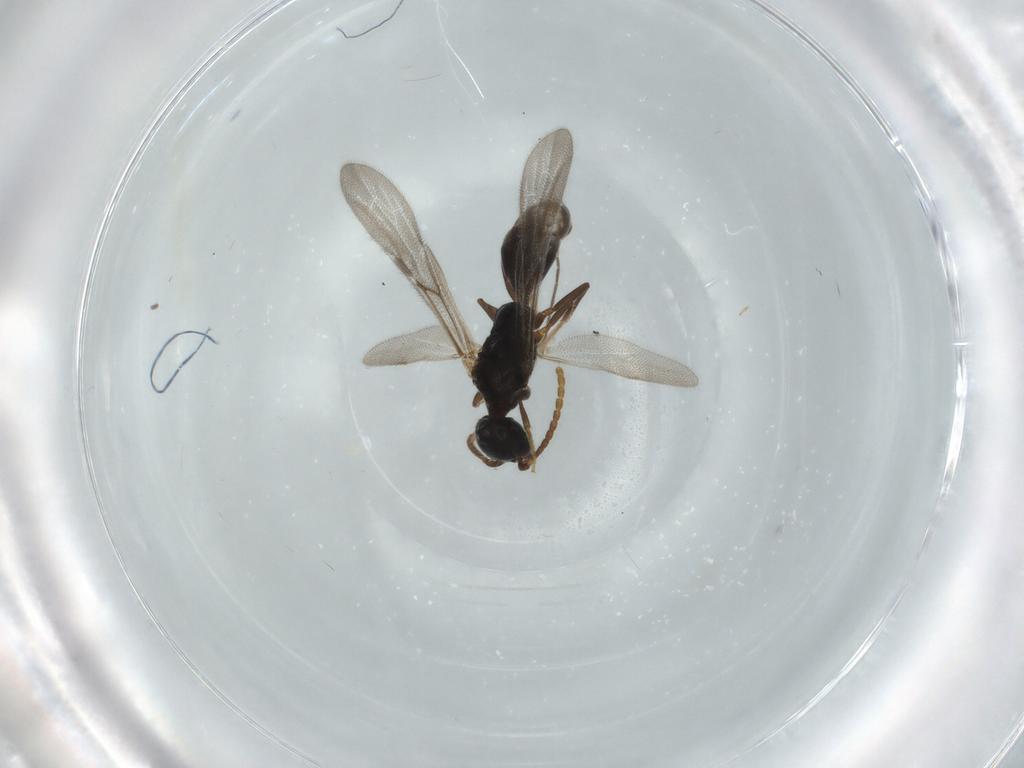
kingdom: Animalia
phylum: Arthropoda
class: Insecta
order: Hymenoptera
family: Bethylidae
